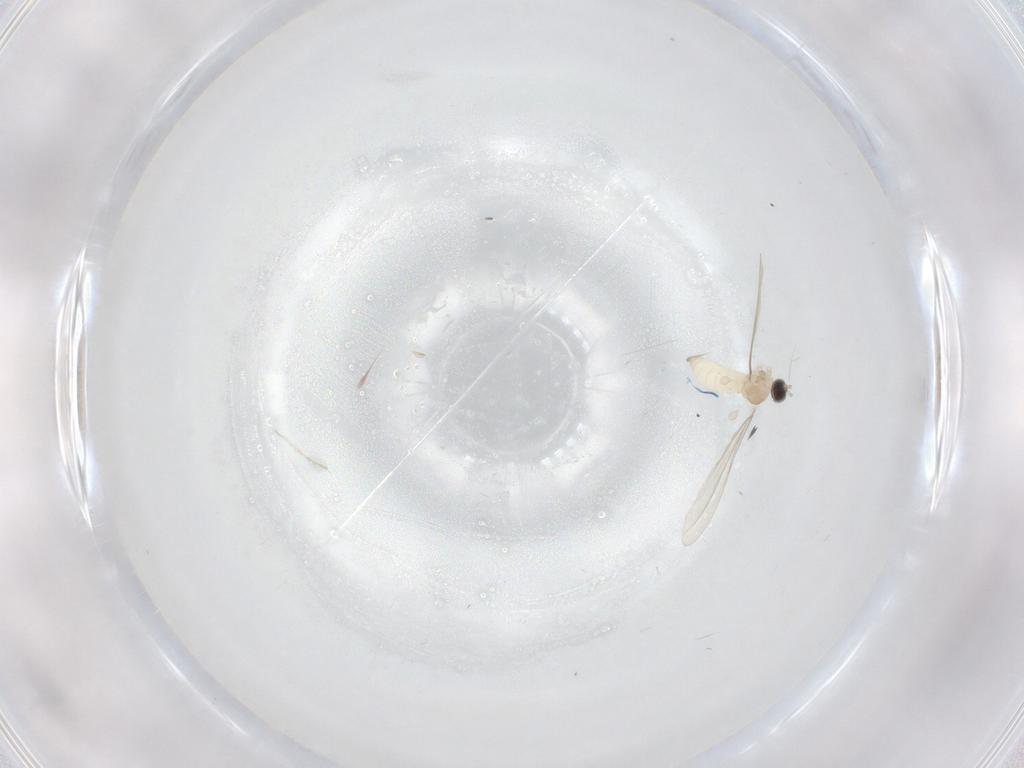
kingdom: Animalia
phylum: Arthropoda
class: Insecta
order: Diptera
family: Cecidomyiidae
